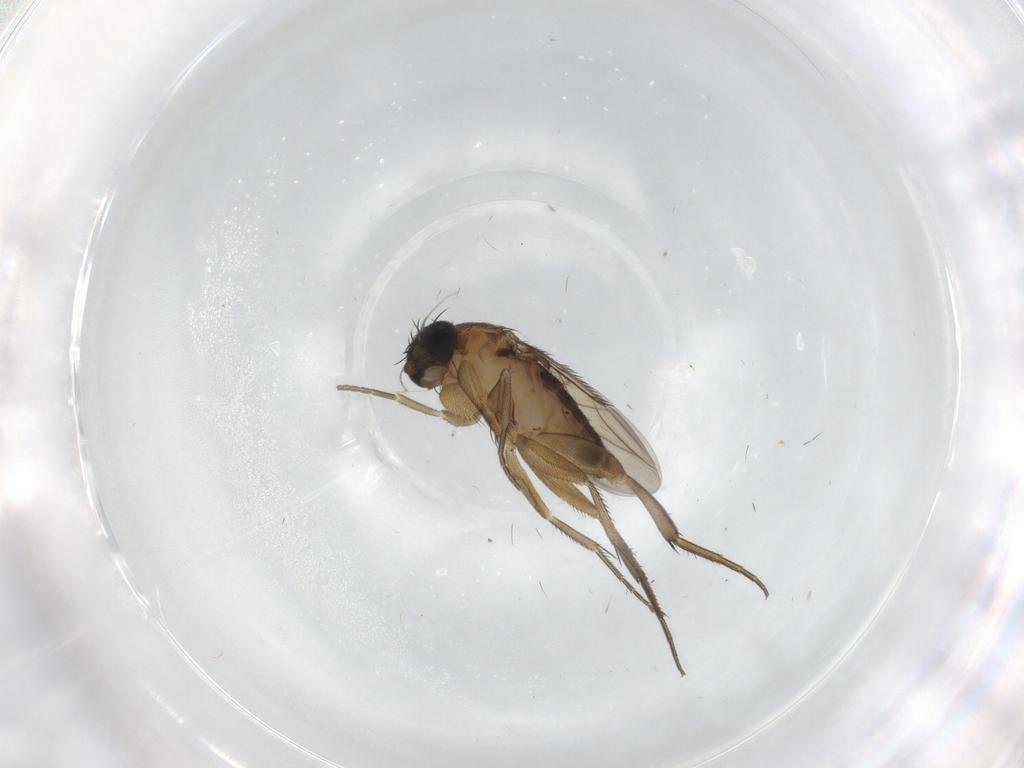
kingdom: Animalia
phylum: Arthropoda
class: Insecta
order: Diptera
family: Phoridae
